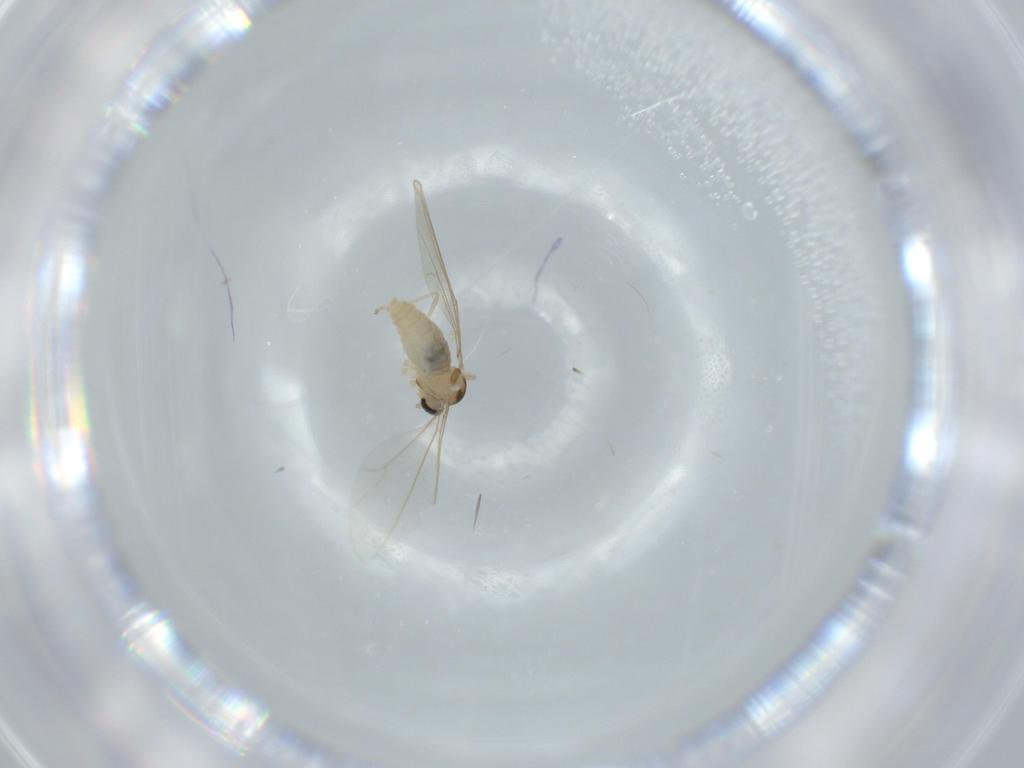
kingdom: Animalia
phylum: Arthropoda
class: Insecta
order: Diptera
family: Cecidomyiidae
